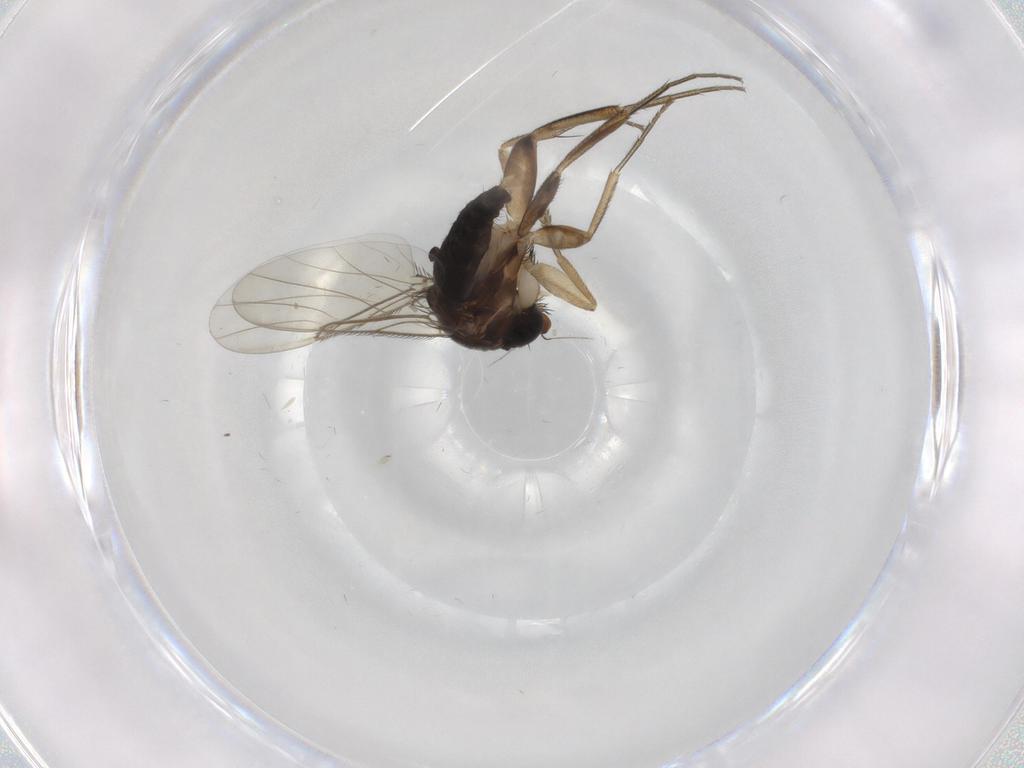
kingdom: Animalia
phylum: Arthropoda
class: Insecta
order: Diptera
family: Phoridae
